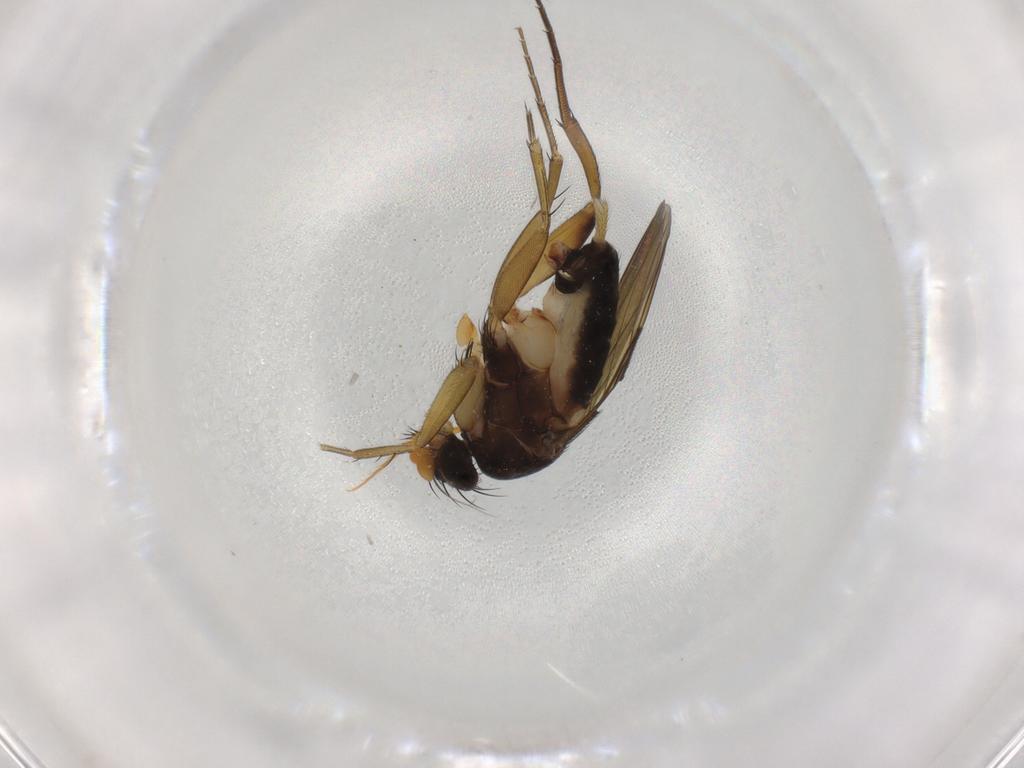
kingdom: Animalia
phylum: Arthropoda
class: Insecta
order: Diptera
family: Phoridae
